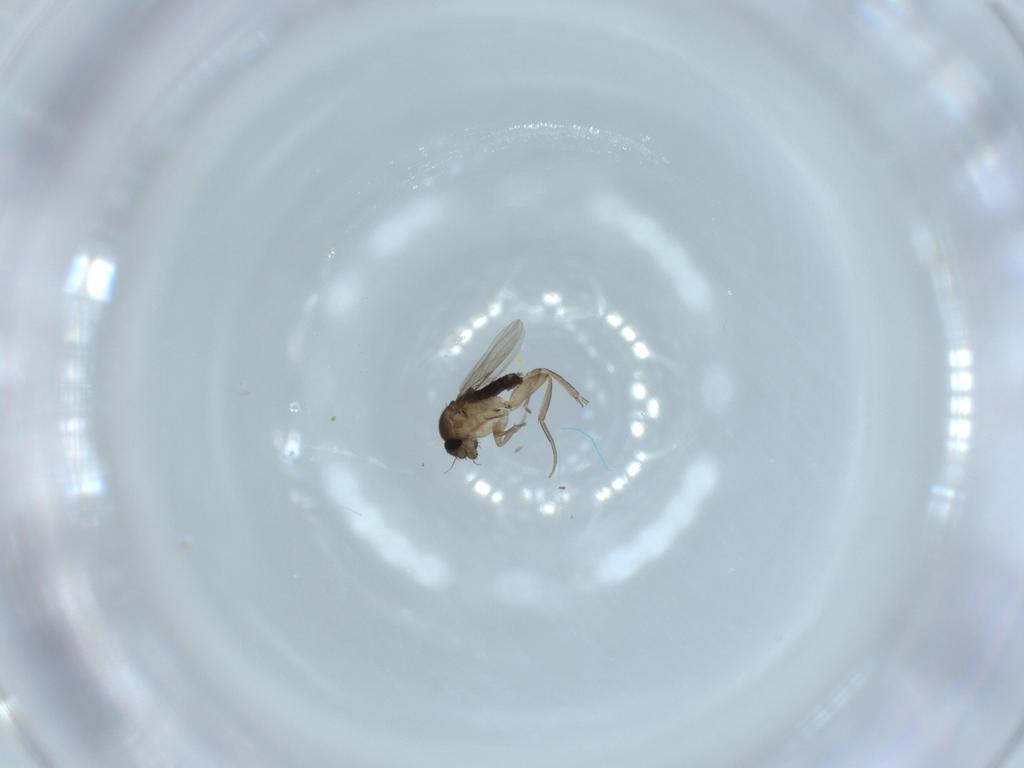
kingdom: Animalia
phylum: Arthropoda
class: Insecta
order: Diptera
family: Phoridae
